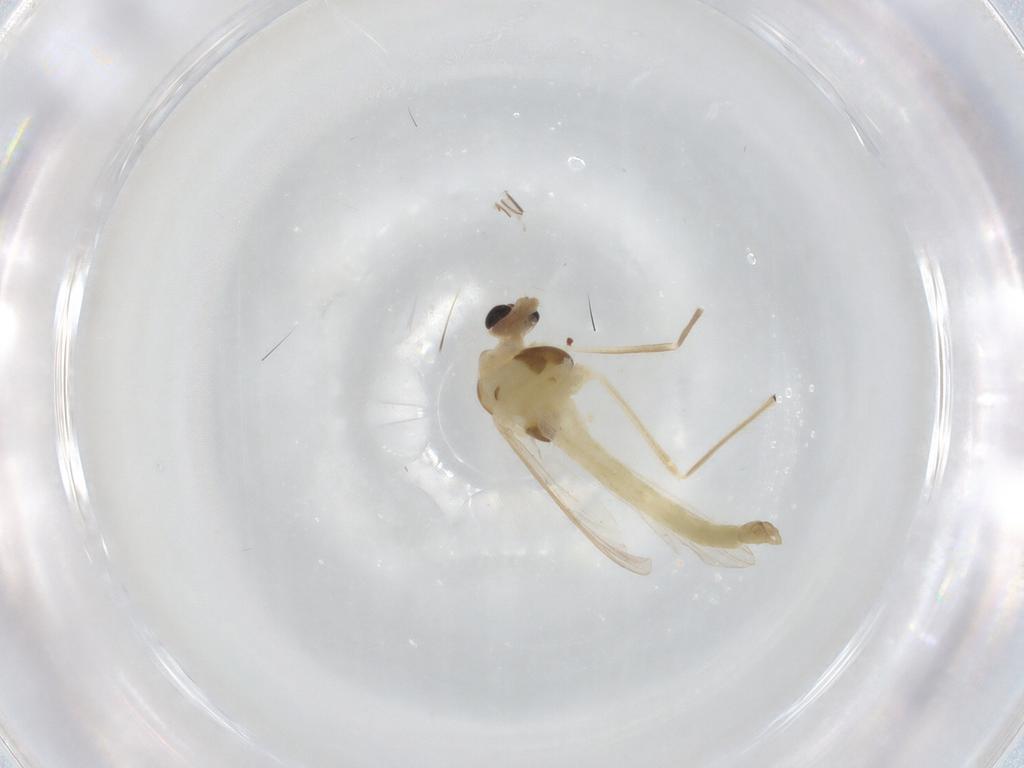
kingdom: Animalia
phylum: Arthropoda
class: Insecta
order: Diptera
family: Chironomidae
